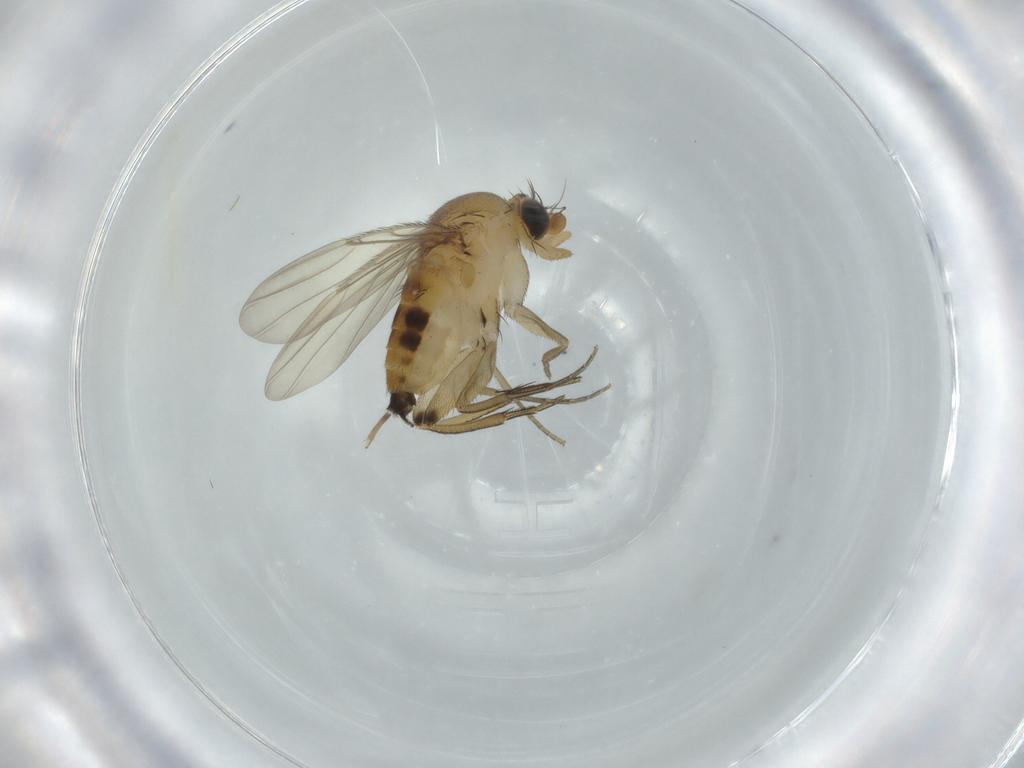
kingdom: Animalia
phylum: Arthropoda
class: Insecta
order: Diptera
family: Phoridae
